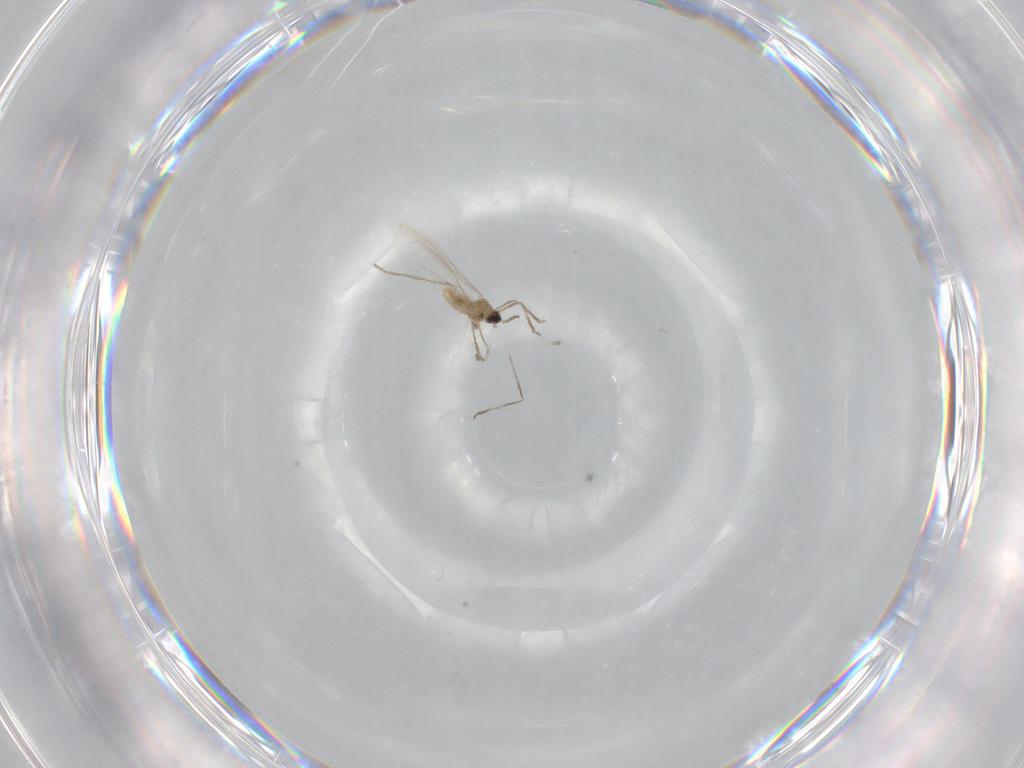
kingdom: Animalia
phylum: Arthropoda
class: Insecta
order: Diptera
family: Cecidomyiidae
